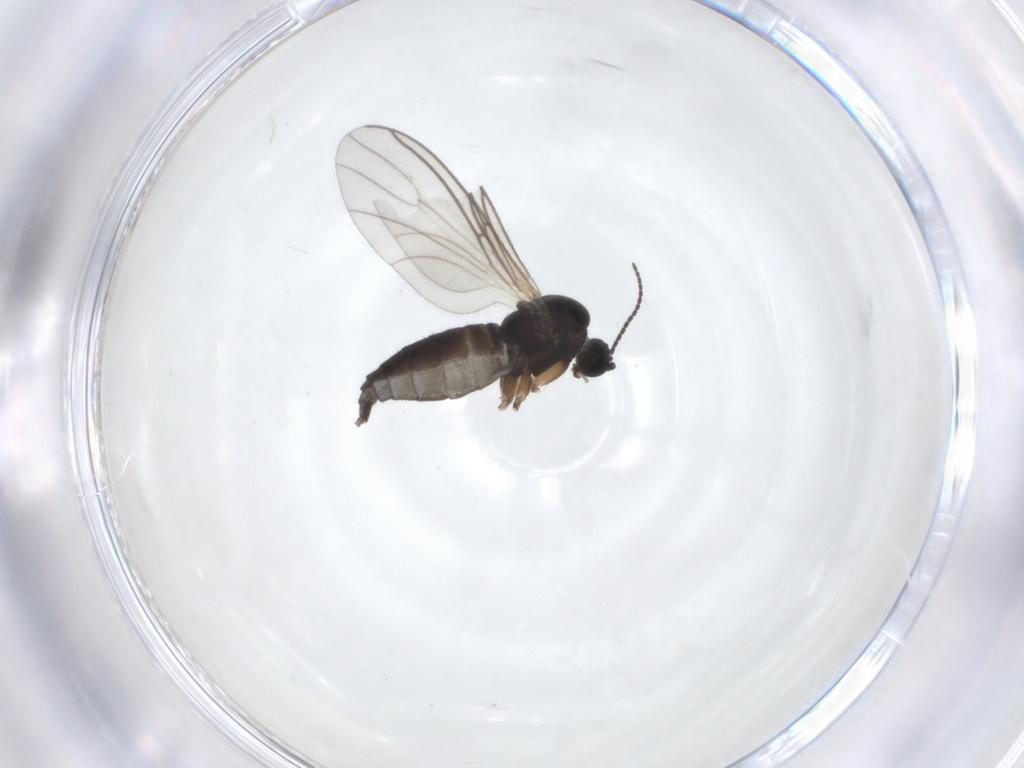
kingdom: Animalia
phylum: Arthropoda
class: Insecta
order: Diptera
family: Sciaridae
